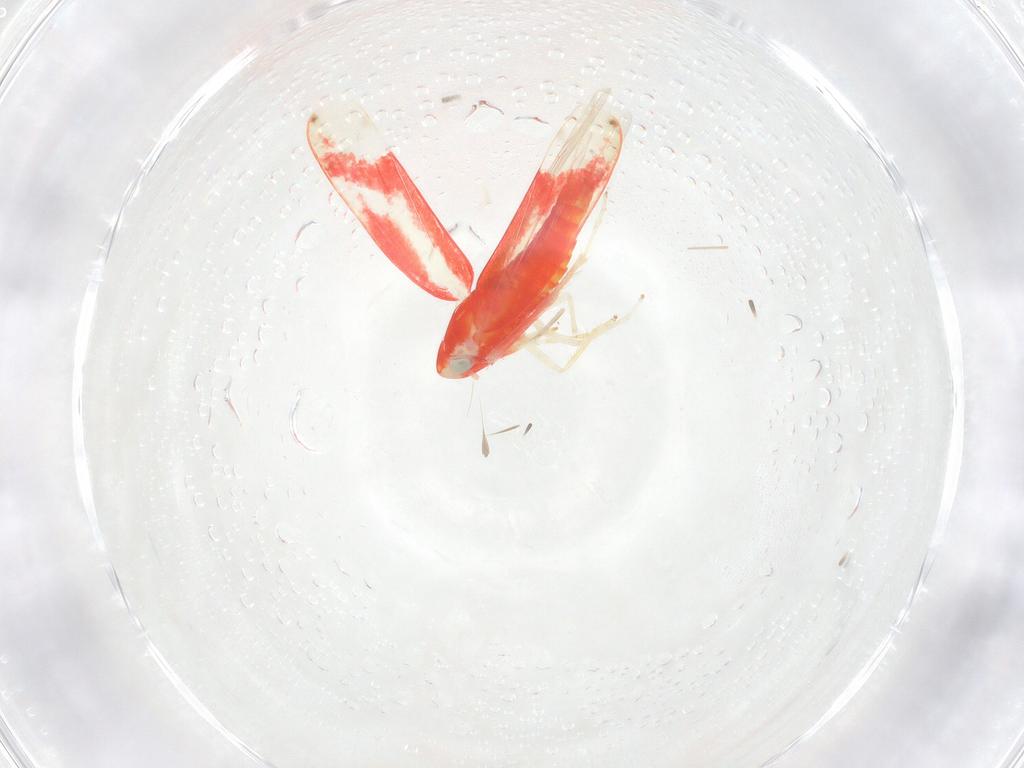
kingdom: Animalia
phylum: Arthropoda
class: Insecta
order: Hemiptera
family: Cicadellidae
